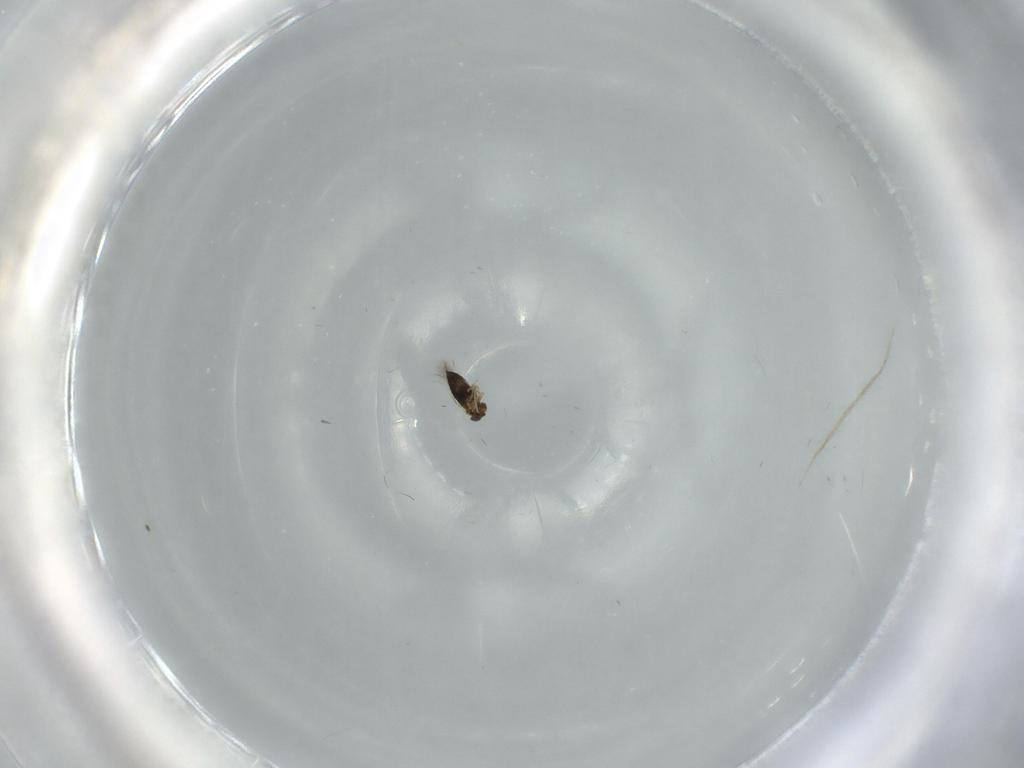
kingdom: Animalia
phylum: Arthropoda
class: Insecta
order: Hymenoptera
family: Signiphoridae
